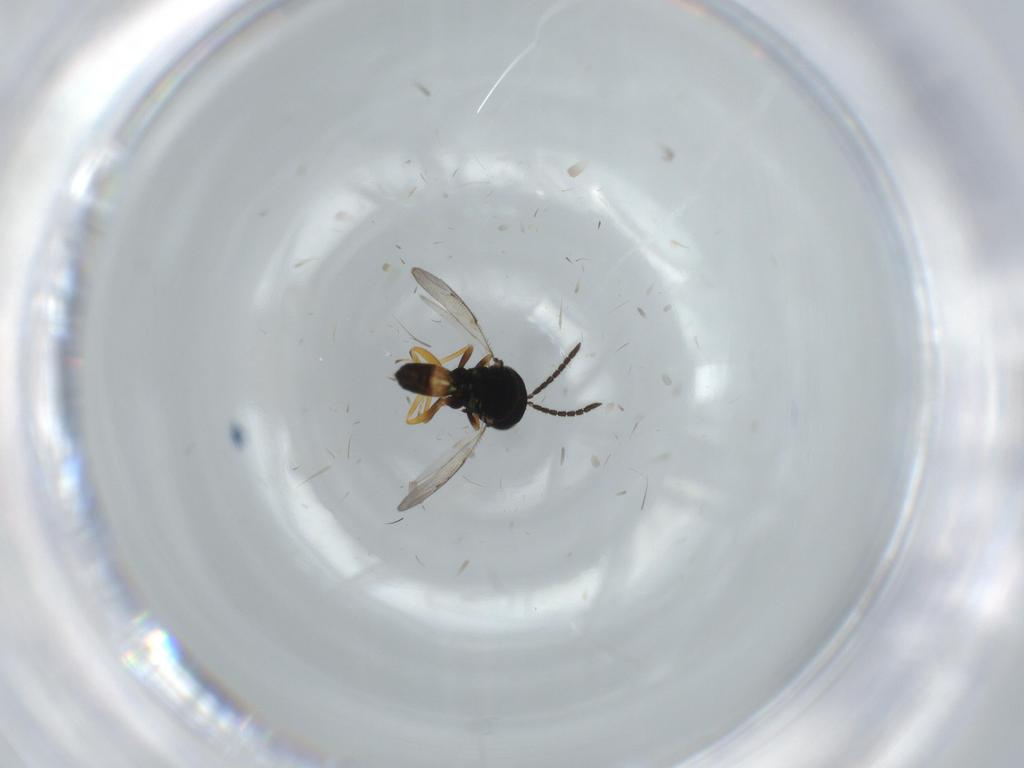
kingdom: Animalia
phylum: Arthropoda
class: Insecta
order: Hymenoptera
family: Pteromalidae
